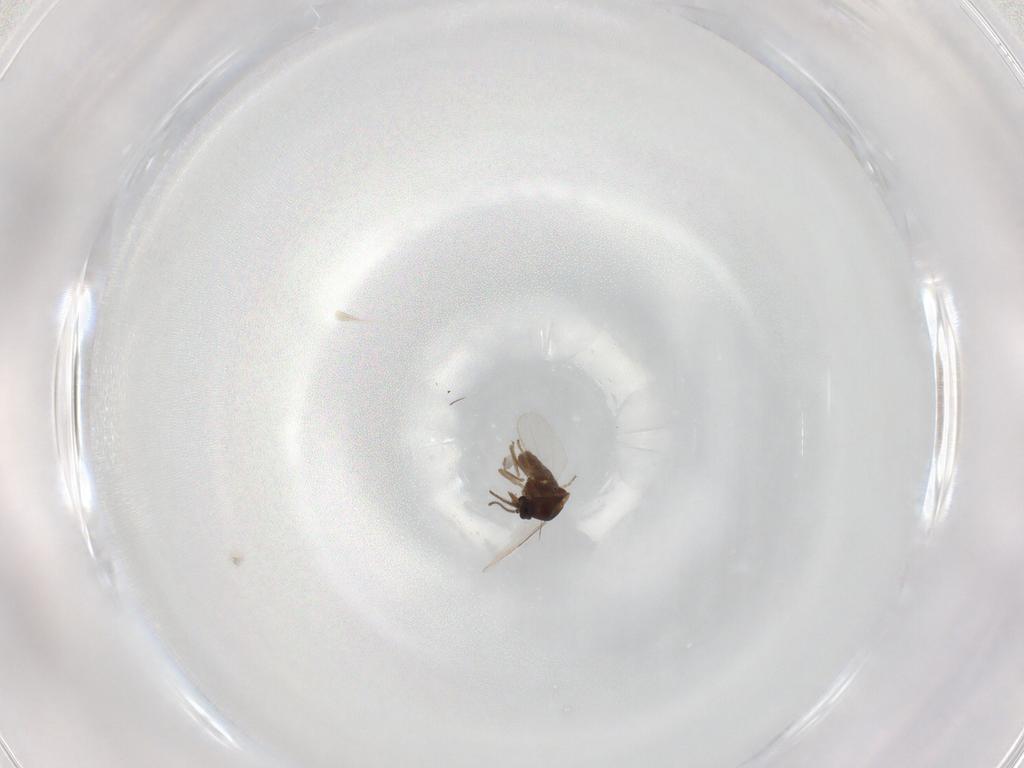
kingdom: Animalia
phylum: Arthropoda
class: Insecta
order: Diptera
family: Ceratopogonidae
